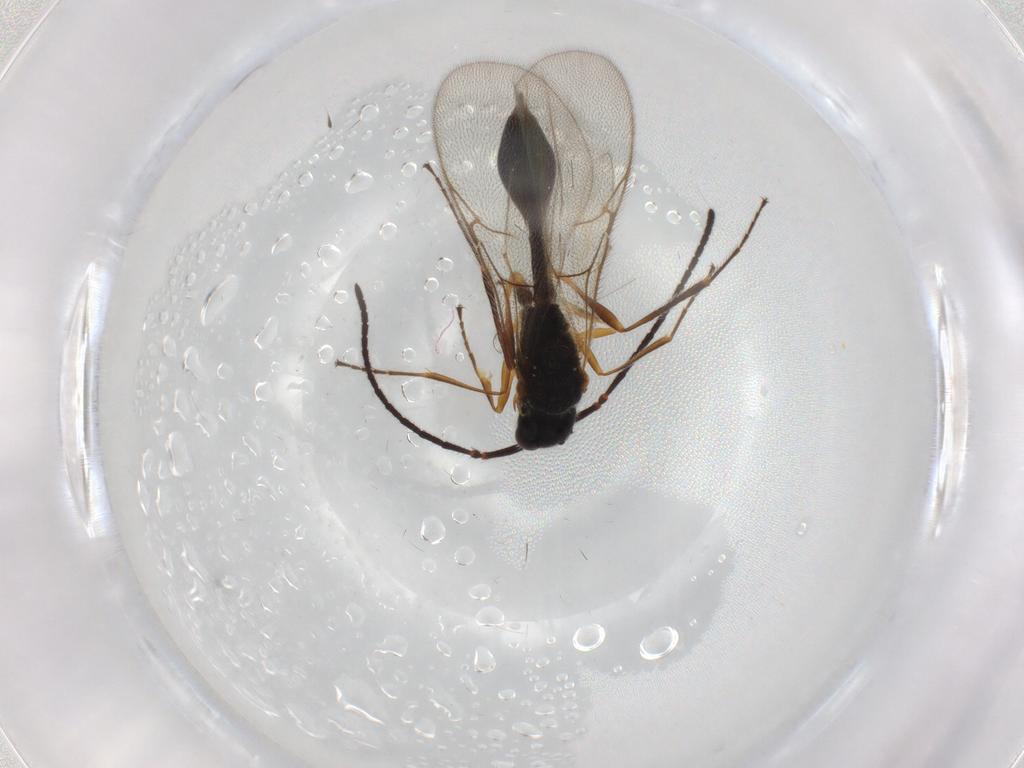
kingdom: Animalia
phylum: Arthropoda
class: Insecta
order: Hymenoptera
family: Diapriidae
